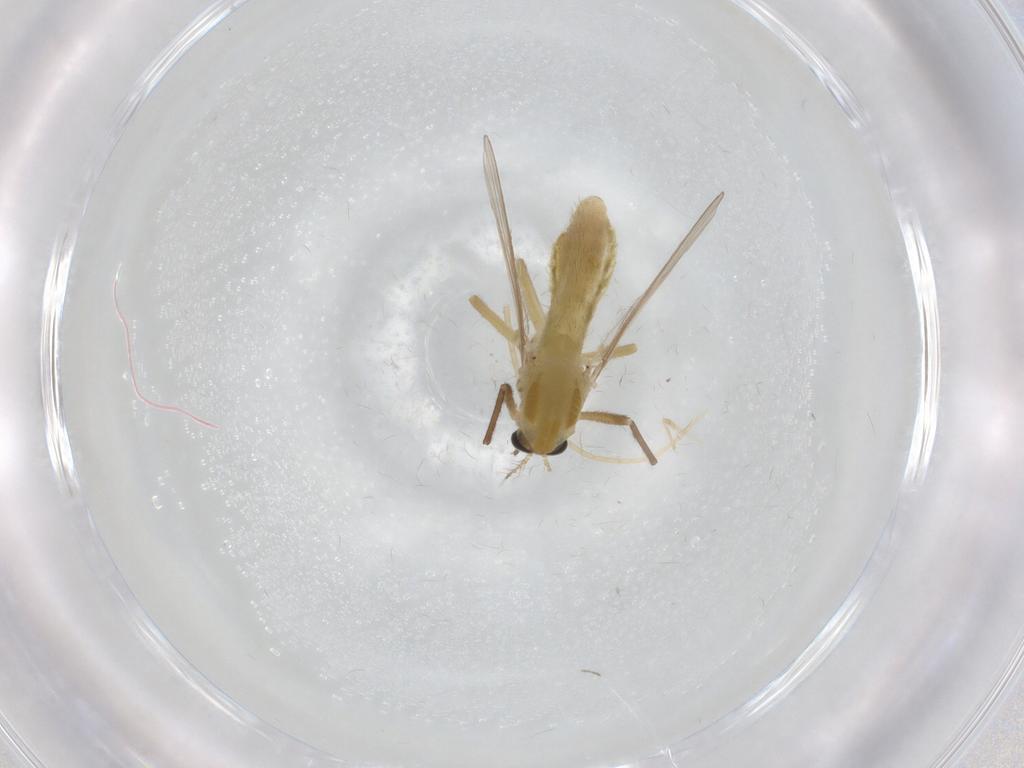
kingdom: Animalia
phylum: Arthropoda
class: Insecta
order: Diptera
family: Chironomidae
